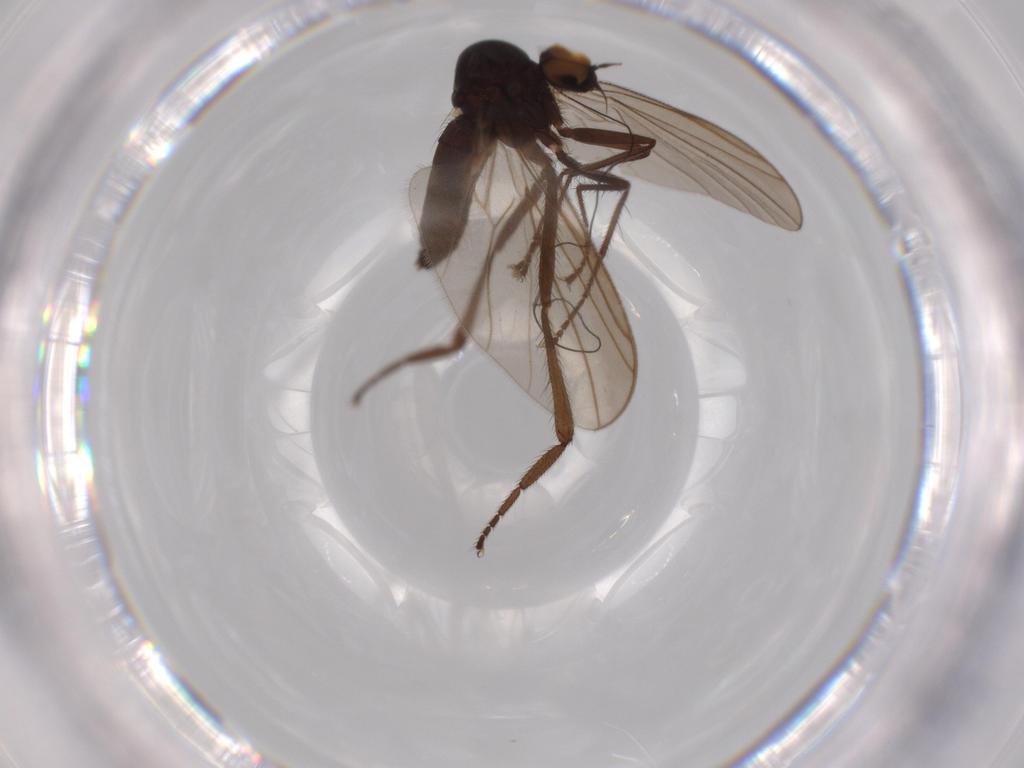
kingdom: Animalia
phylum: Arthropoda
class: Insecta
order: Diptera
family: Hybotidae
